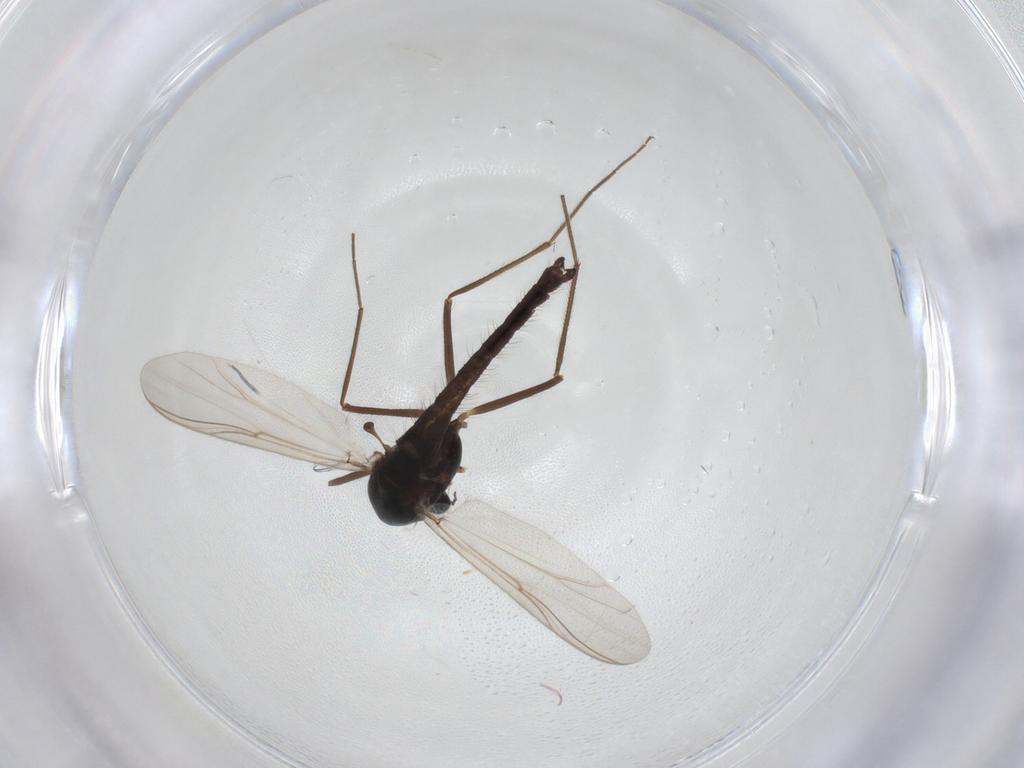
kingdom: Animalia
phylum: Arthropoda
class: Insecta
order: Diptera
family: Chironomidae
